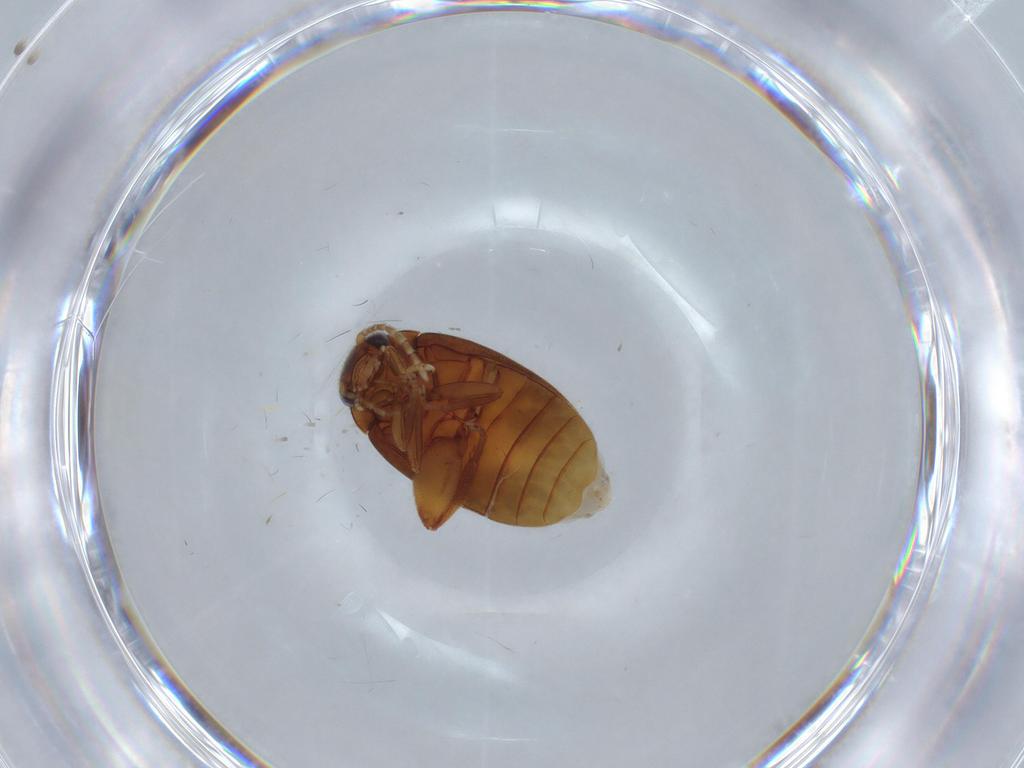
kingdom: Animalia
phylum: Arthropoda
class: Insecta
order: Coleoptera
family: Scirtidae
